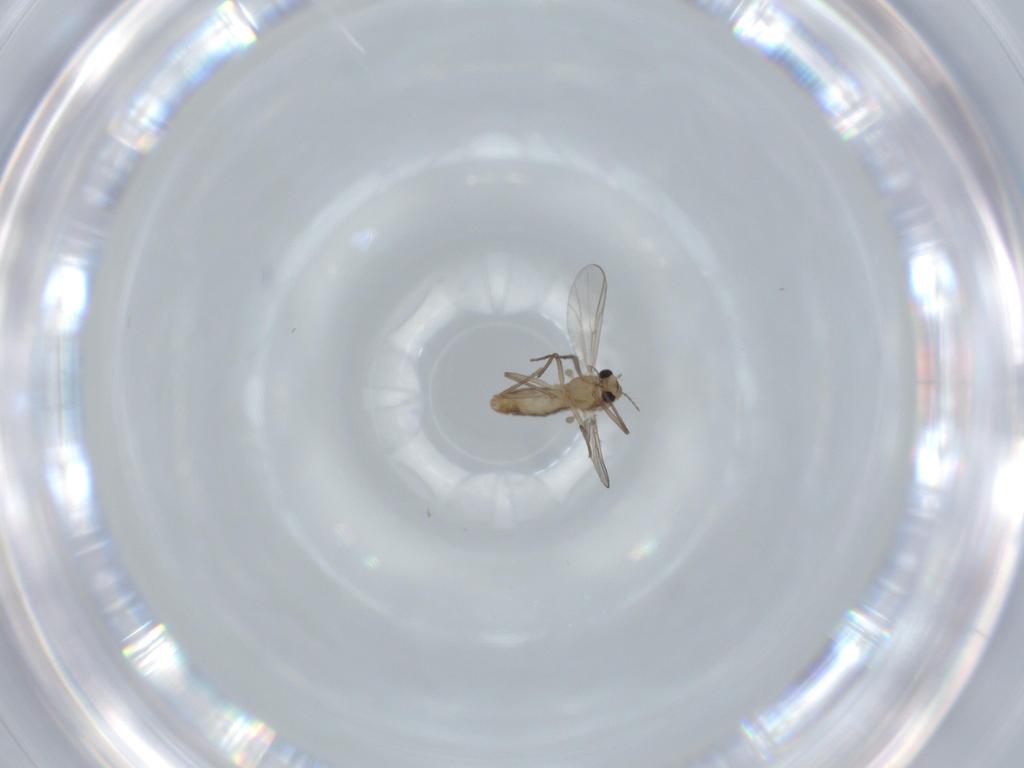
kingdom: Animalia
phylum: Arthropoda
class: Insecta
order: Diptera
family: Chironomidae
